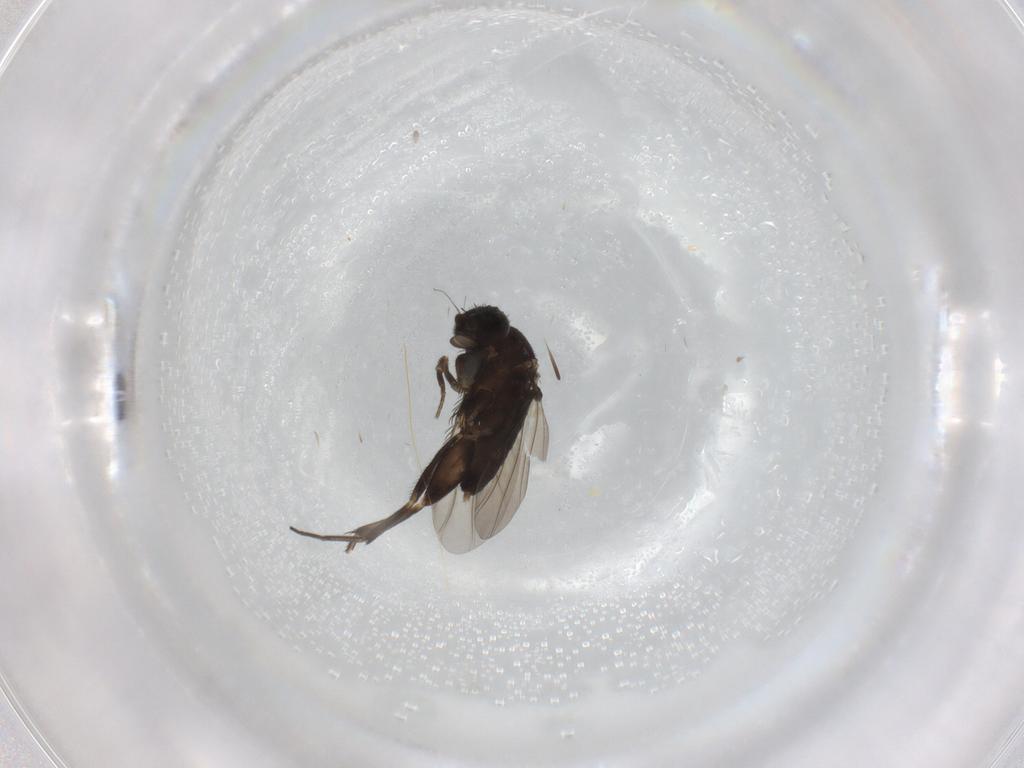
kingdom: Animalia
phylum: Arthropoda
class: Insecta
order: Diptera
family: Phoridae
